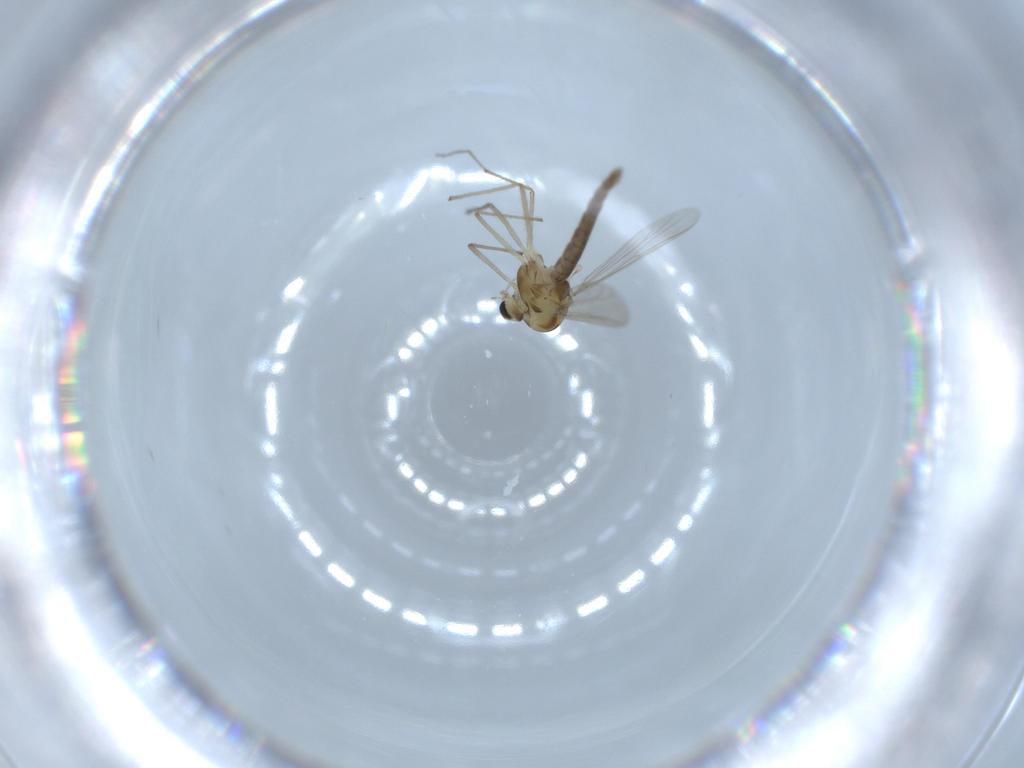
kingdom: Animalia
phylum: Arthropoda
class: Insecta
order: Diptera
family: Chironomidae
